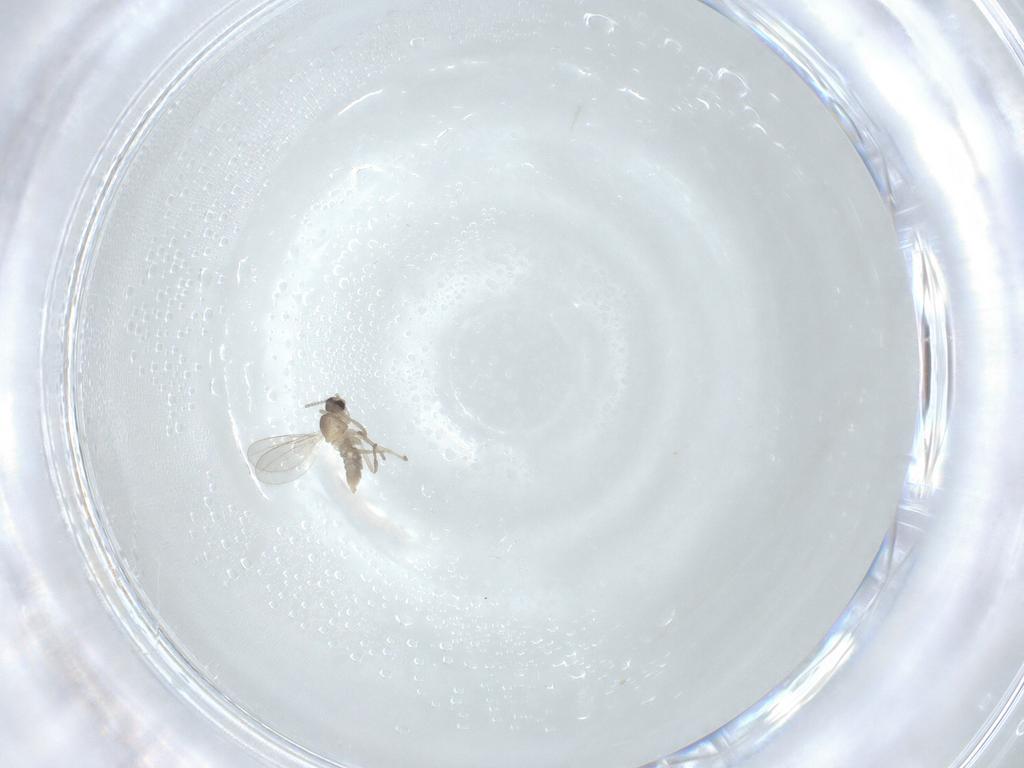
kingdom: Animalia
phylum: Arthropoda
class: Insecta
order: Diptera
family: Cecidomyiidae
